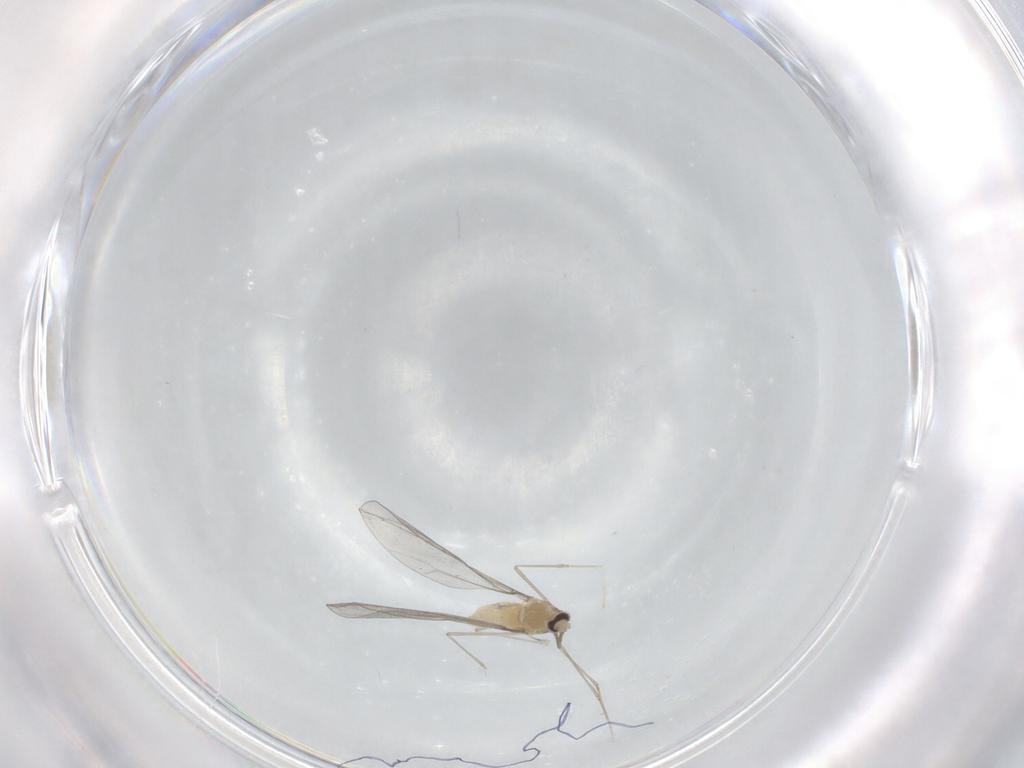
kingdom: Animalia
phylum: Arthropoda
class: Insecta
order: Diptera
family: Cecidomyiidae
